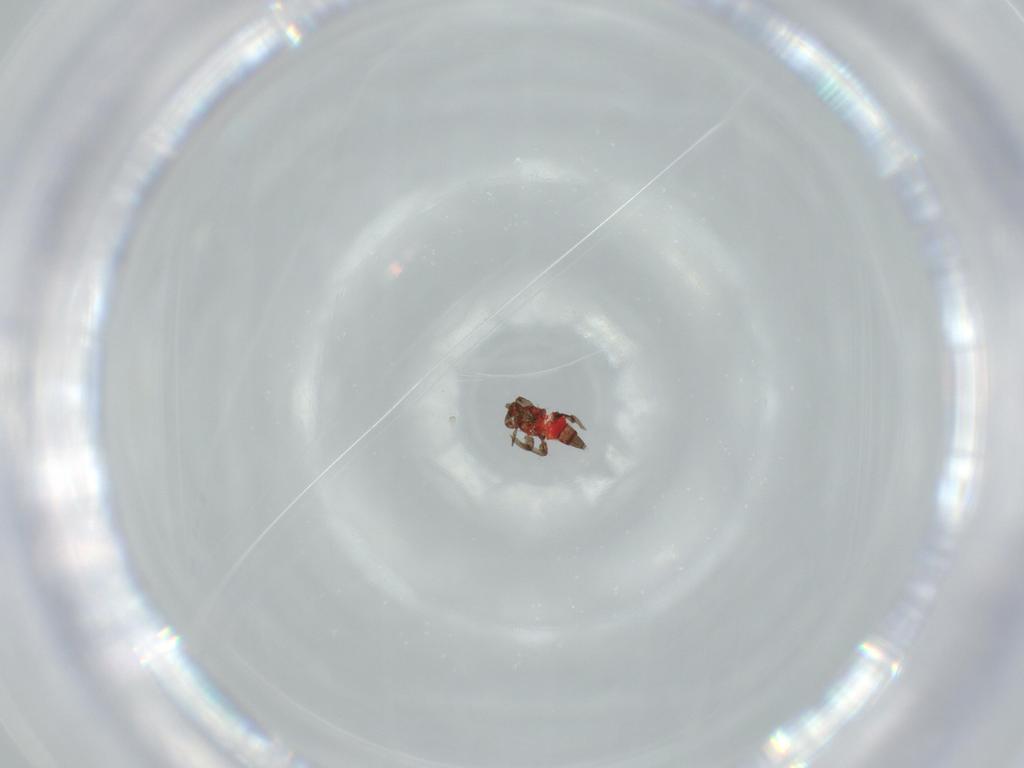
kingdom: Animalia
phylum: Arthropoda
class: Insecta
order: Thysanoptera
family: Phlaeothripidae
